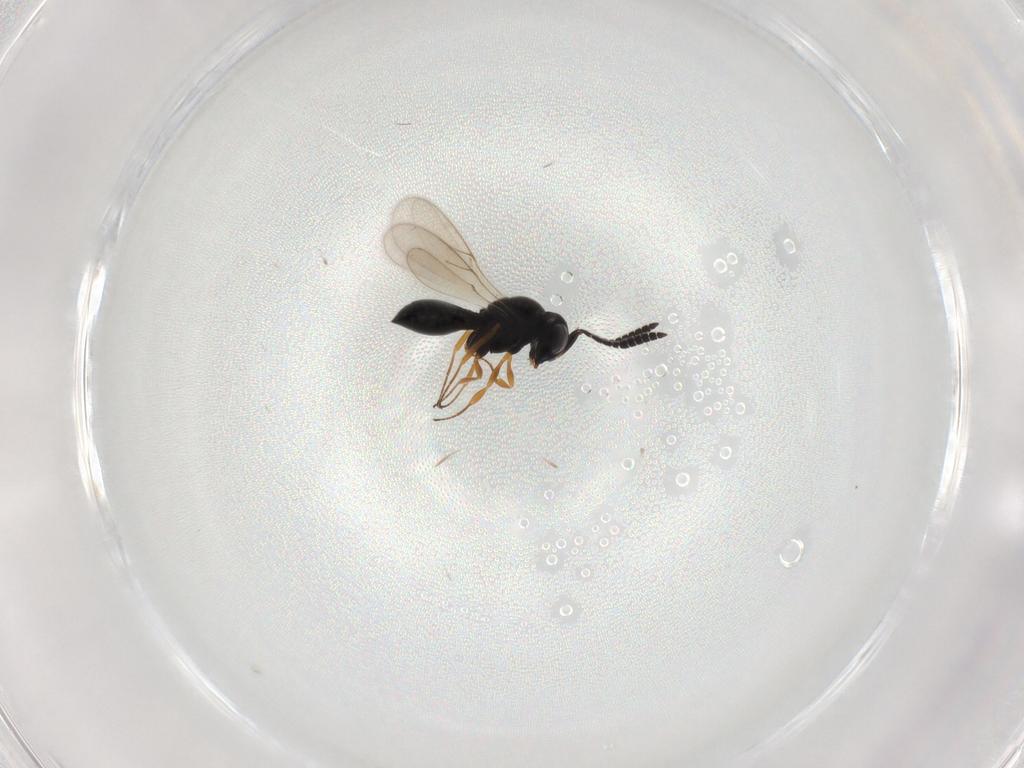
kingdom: Animalia
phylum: Arthropoda
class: Insecta
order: Hymenoptera
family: Scelionidae
